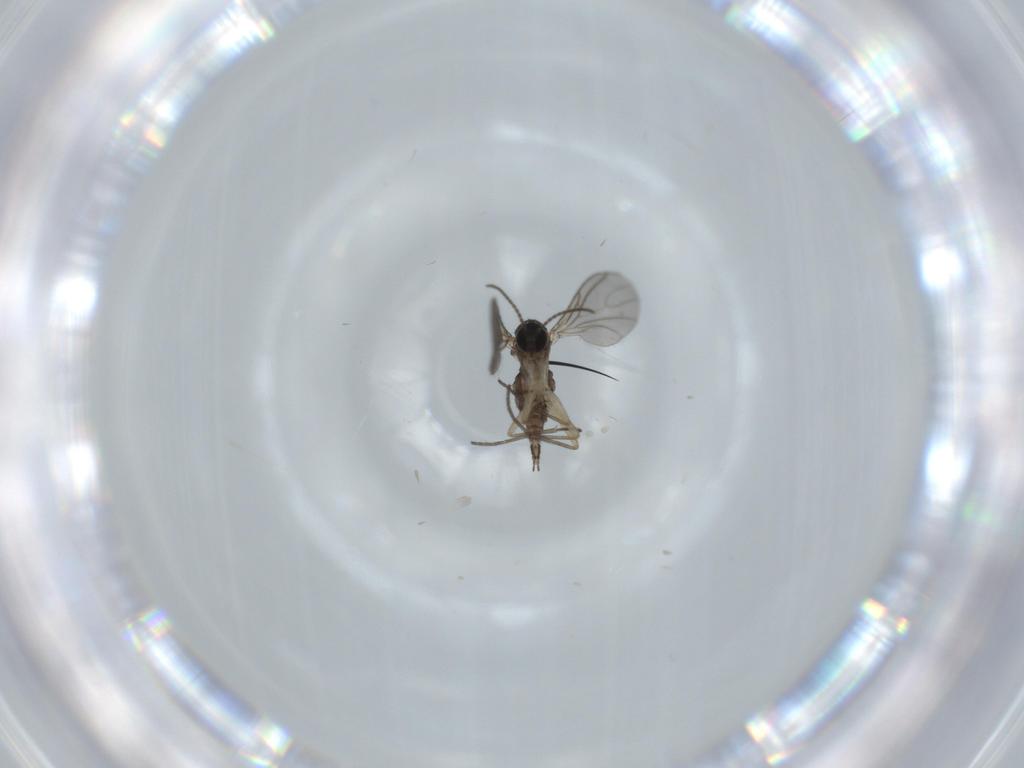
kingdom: Animalia
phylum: Arthropoda
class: Insecta
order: Diptera
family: Sciaridae
